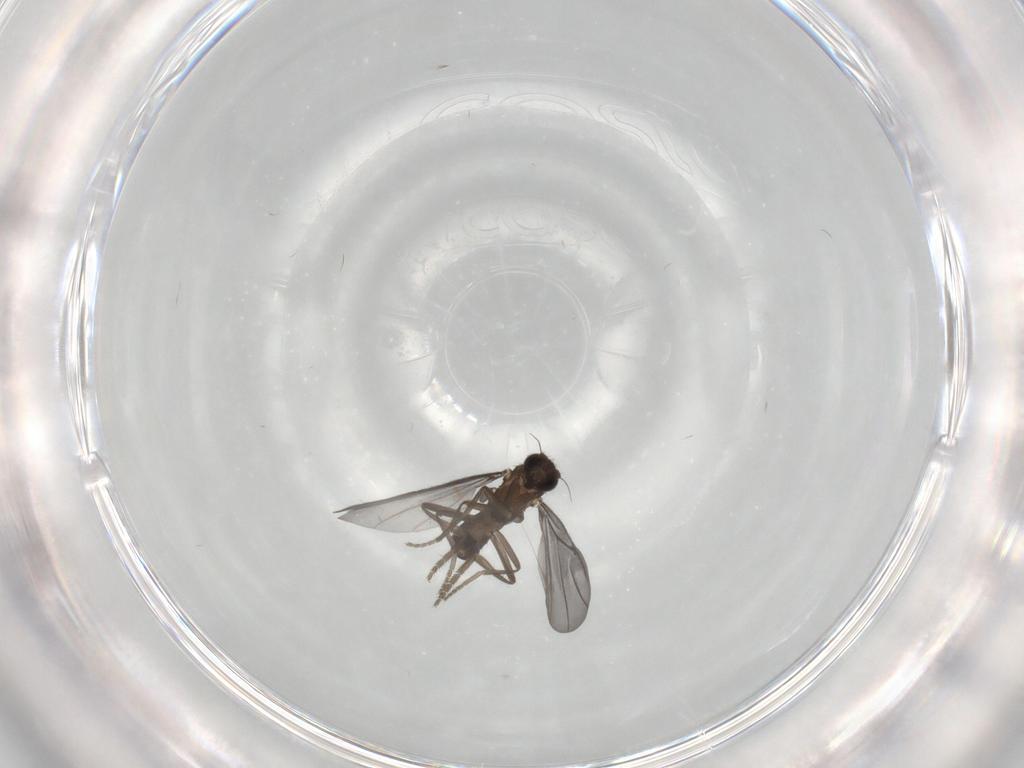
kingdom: Animalia
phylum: Arthropoda
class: Insecta
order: Diptera
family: Phoridae
